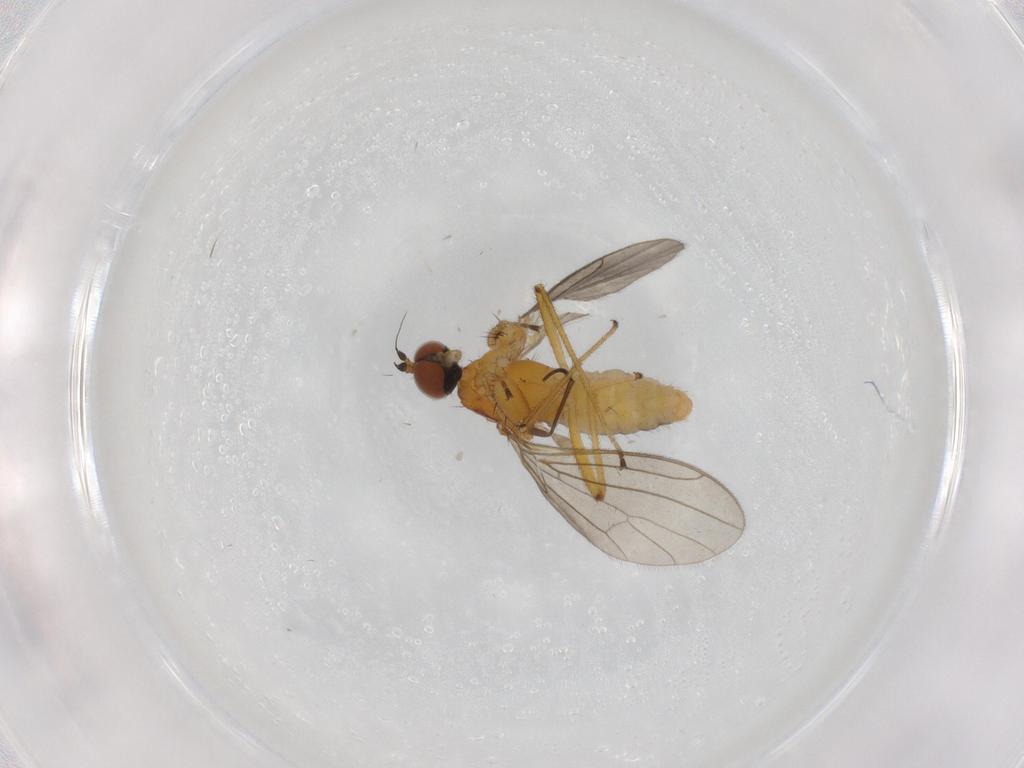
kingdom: Animalia
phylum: Arthropoda
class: Insecta
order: Diptera
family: Empididae
